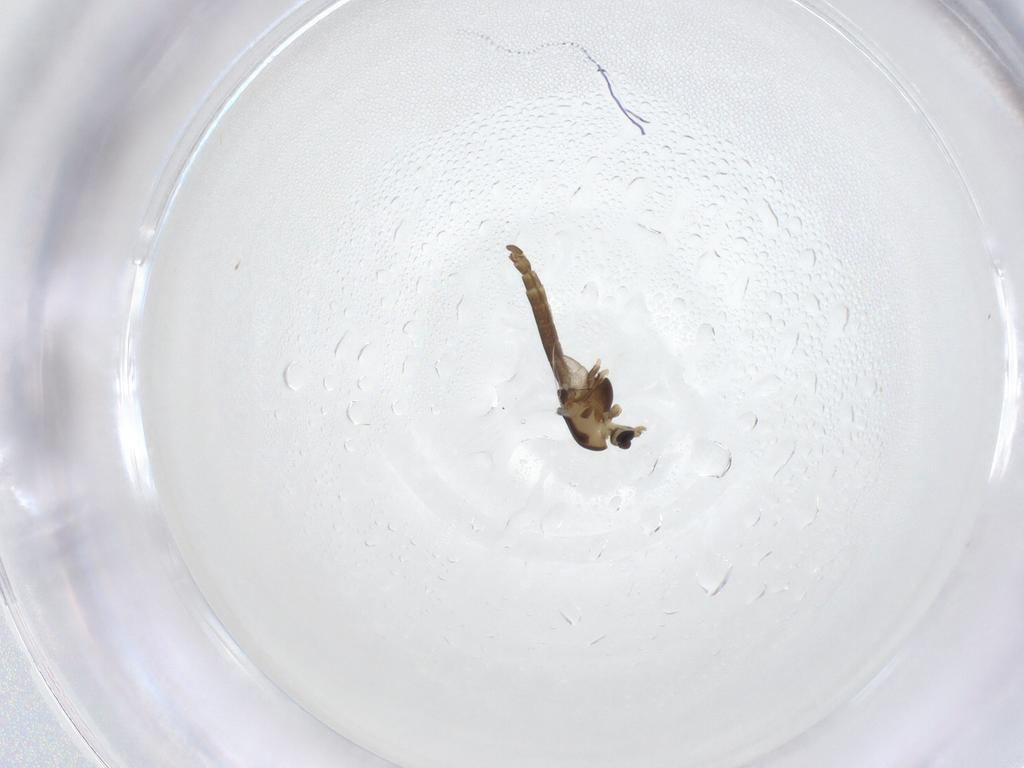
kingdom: Animalia
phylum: Arthropoda
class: Insecta
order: Diptera
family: Chironomidae
